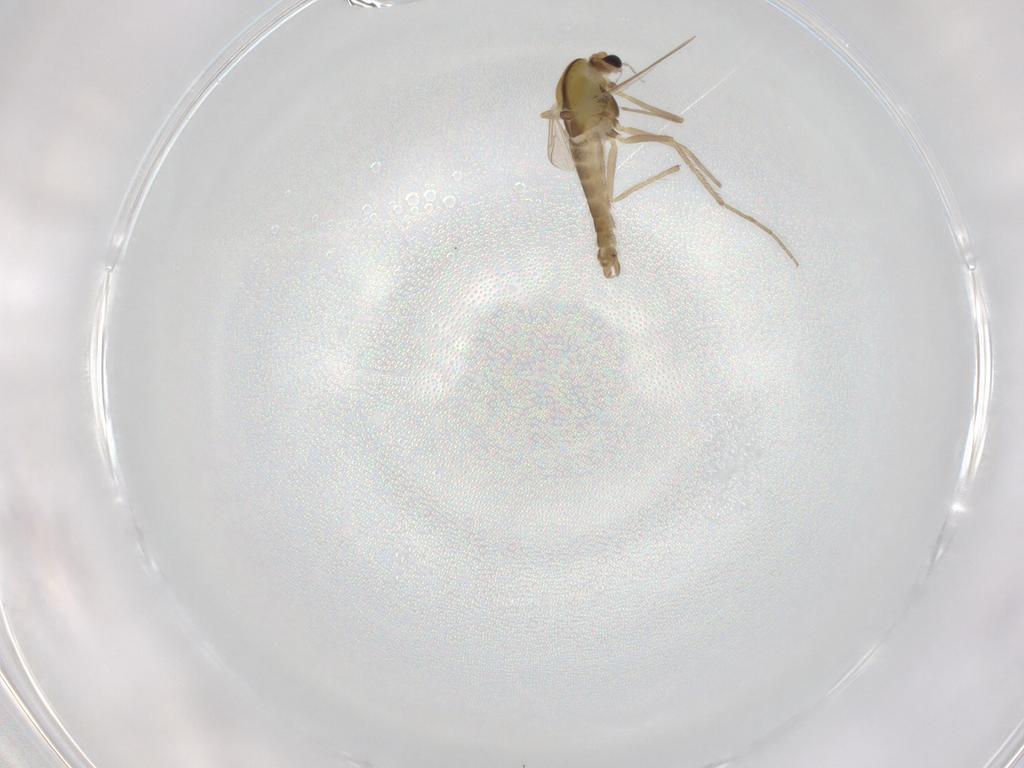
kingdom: Animalia
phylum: Arthropoda
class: Insecta
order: Diptera
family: Chironomidae
